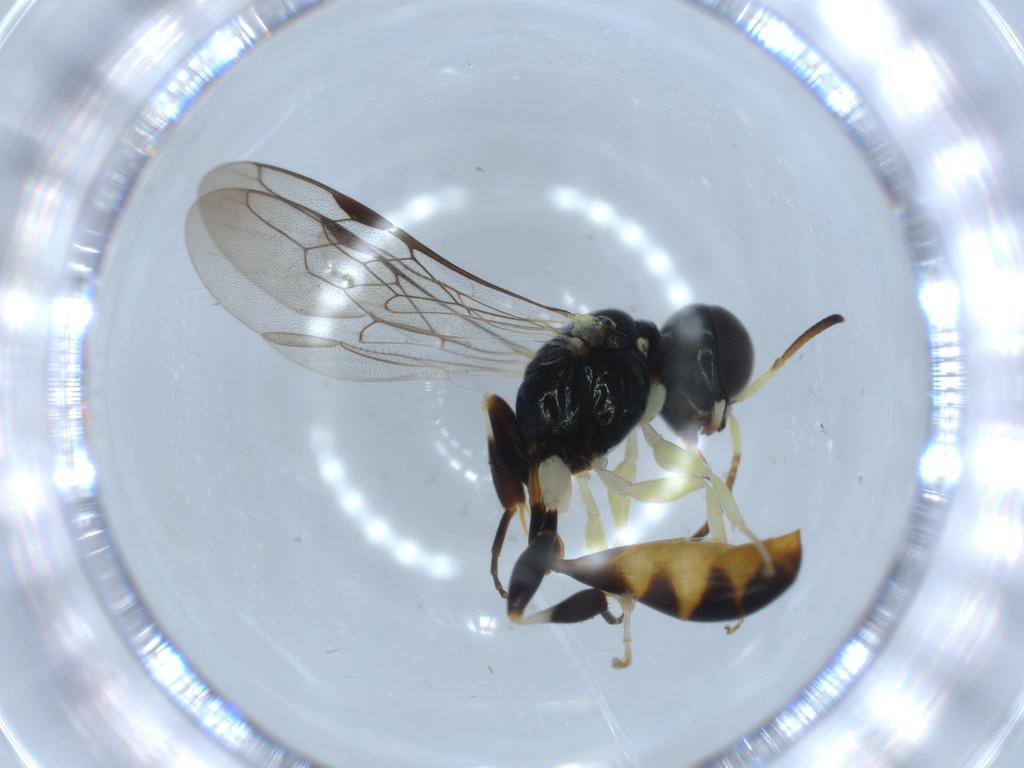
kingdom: Animalia
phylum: Arthropoda
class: Insecta
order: Hymenoptera
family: Crabronidae
